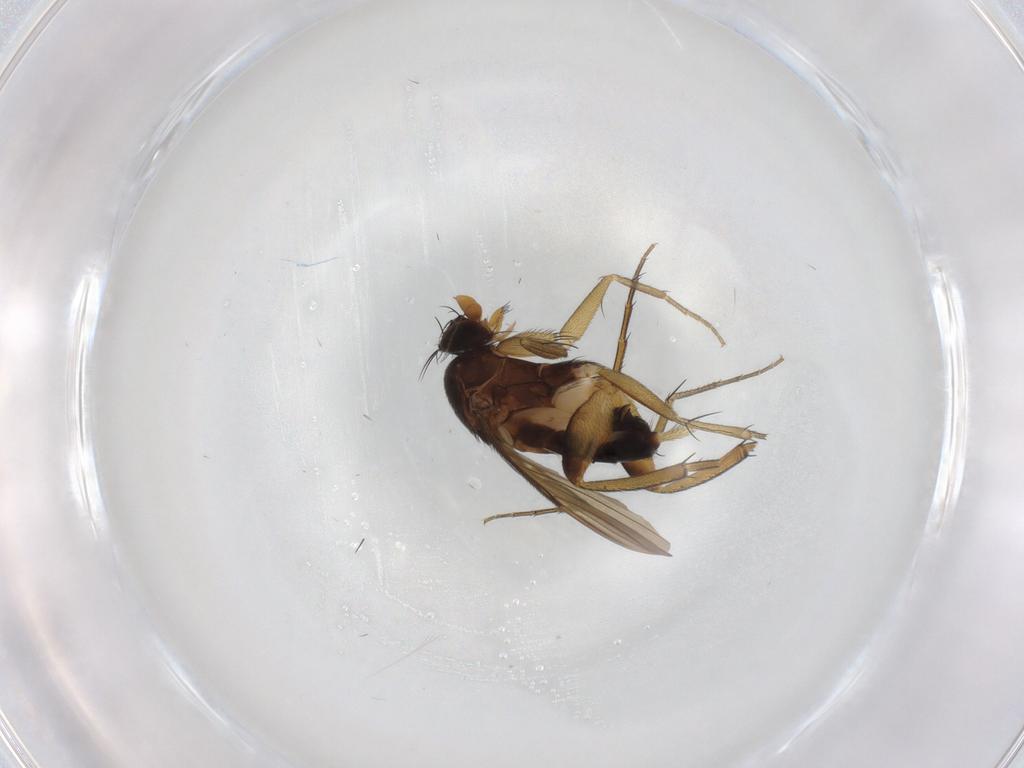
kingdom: Animalia
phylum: Arthropoda
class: Insecta
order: Diptera
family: Phoridae
